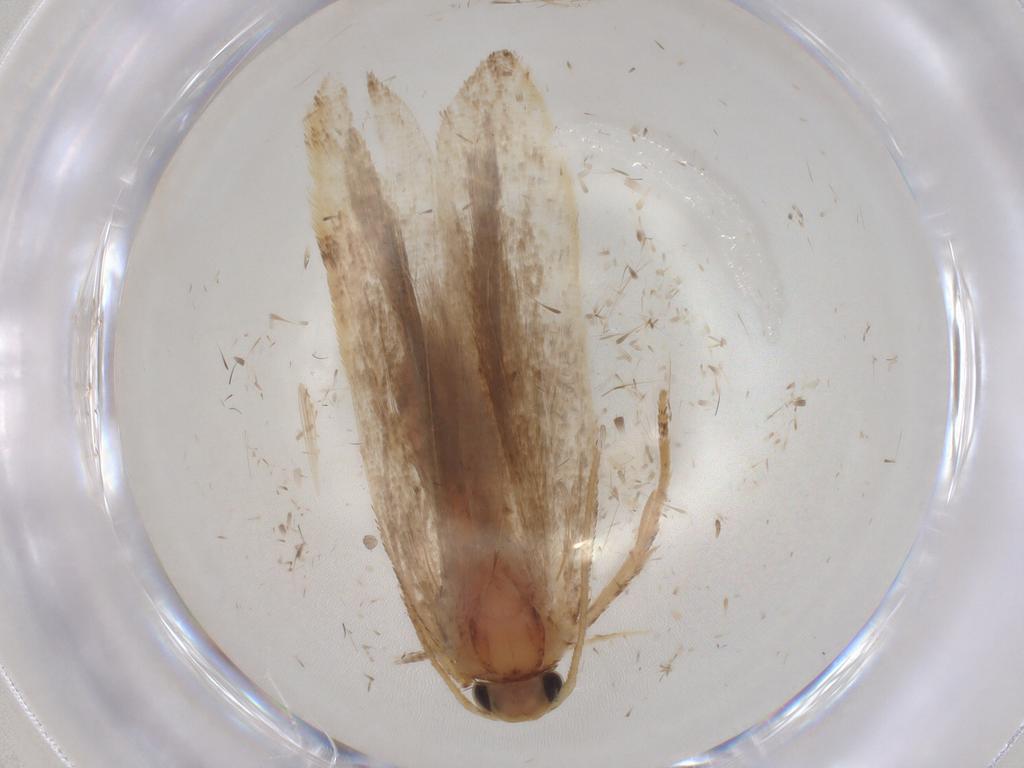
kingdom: Animalia
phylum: Arthropoda
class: Insecta
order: Lepidoptera
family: Gelechiidae
